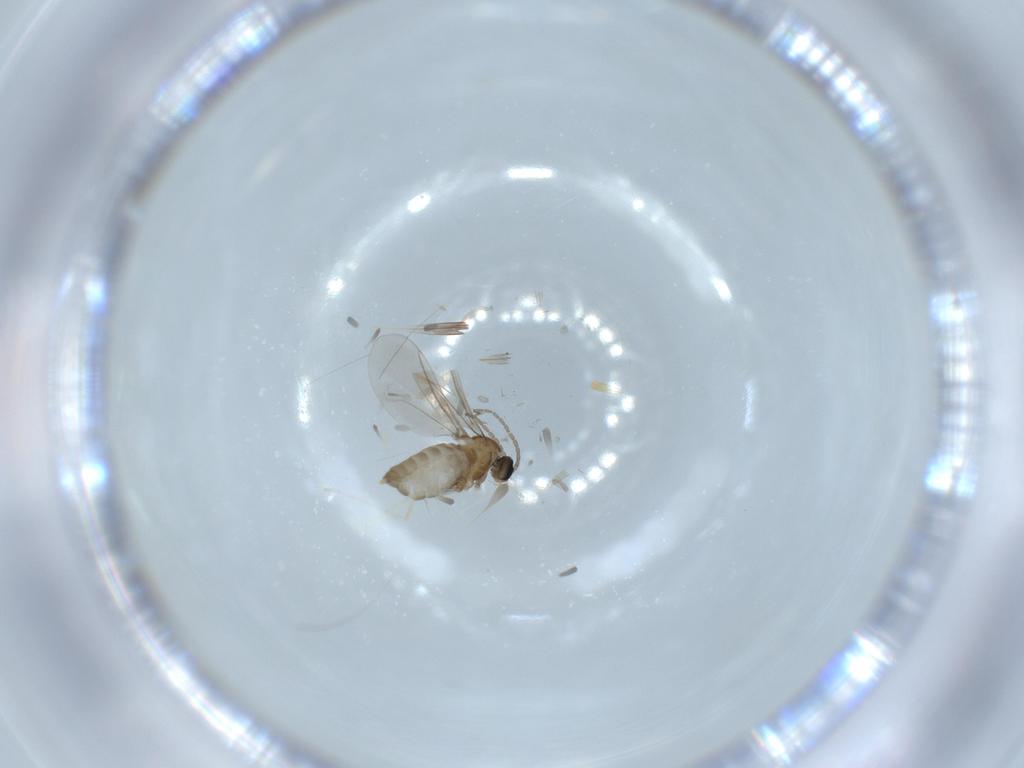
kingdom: Animalia
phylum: Arthropoda
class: Insecta
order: Diptera
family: Cecidomyiidae
